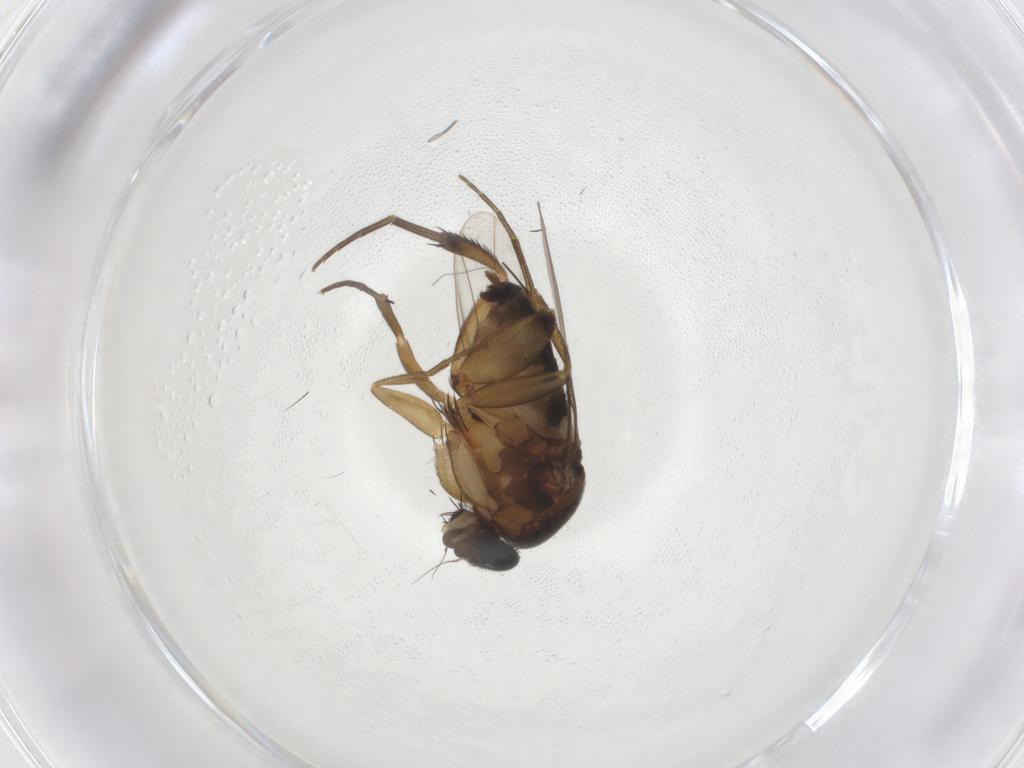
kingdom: Animalia
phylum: Arthropoda
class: Insecta
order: Diptera
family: Phoridae
